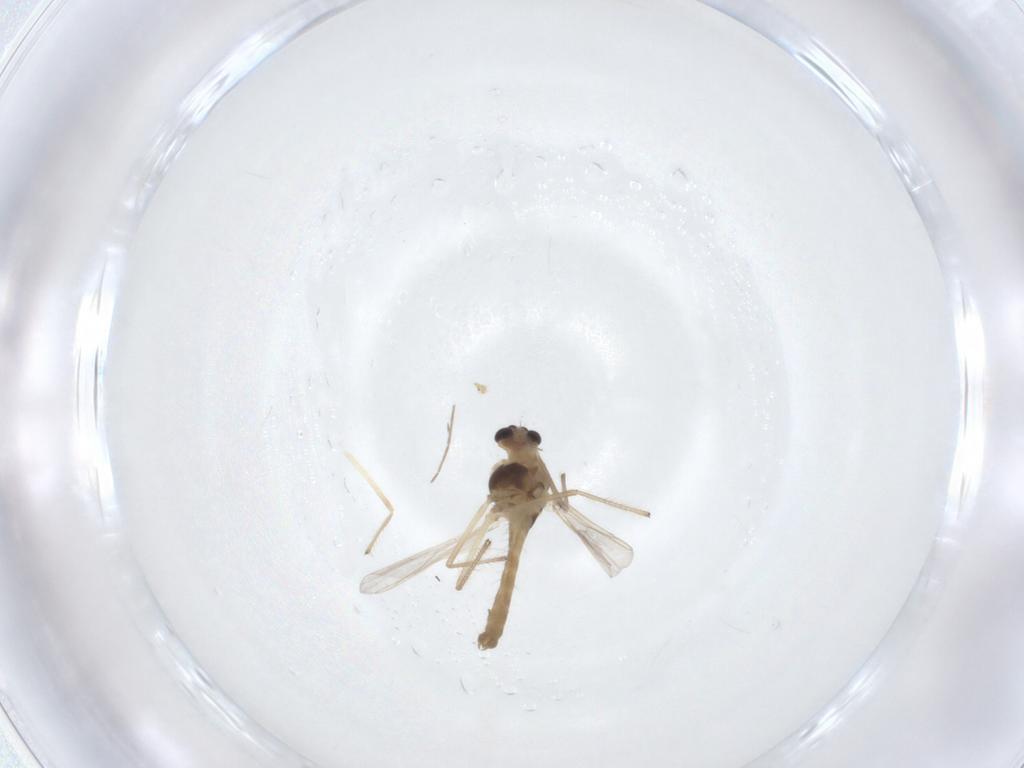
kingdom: Animalia
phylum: Arthropoda
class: Insecta
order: Diptera
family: Chironomidae
